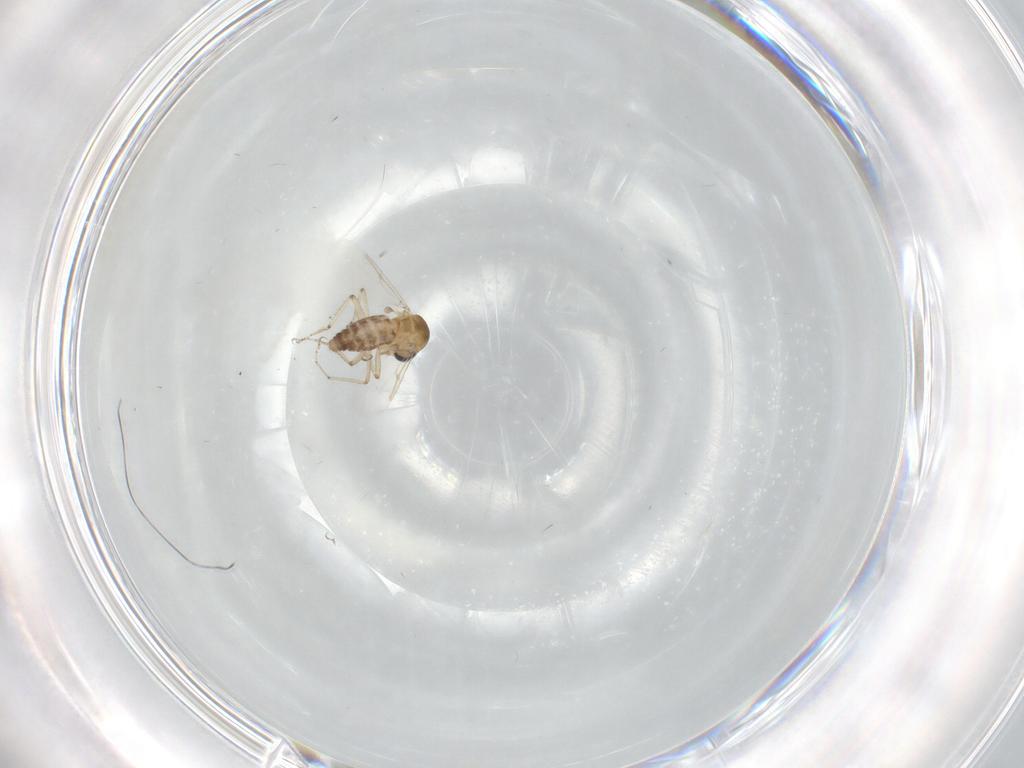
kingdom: Animalia
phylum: Arthropoda
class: Insecta
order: Diptera
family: Ceratopogonidae
